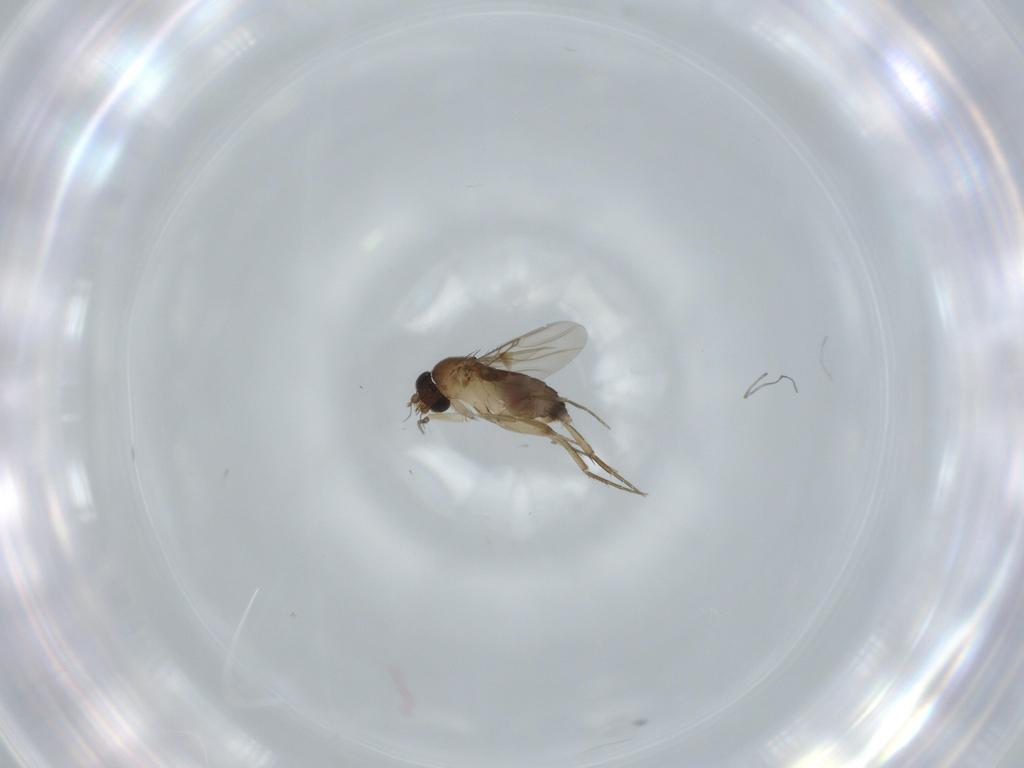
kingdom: Animalia
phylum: Arthropoda
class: Insecta
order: Diptera
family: Phoridae
